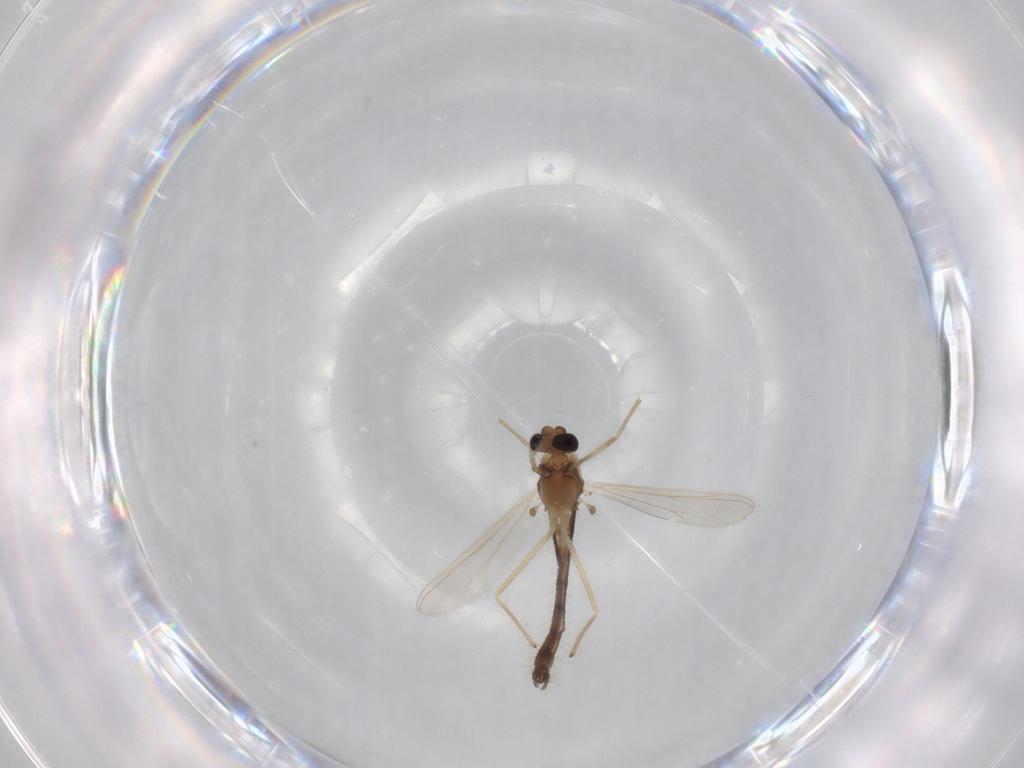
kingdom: Animalia
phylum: Arthropoda
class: Insecta
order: Diptera
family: Chironomidae
